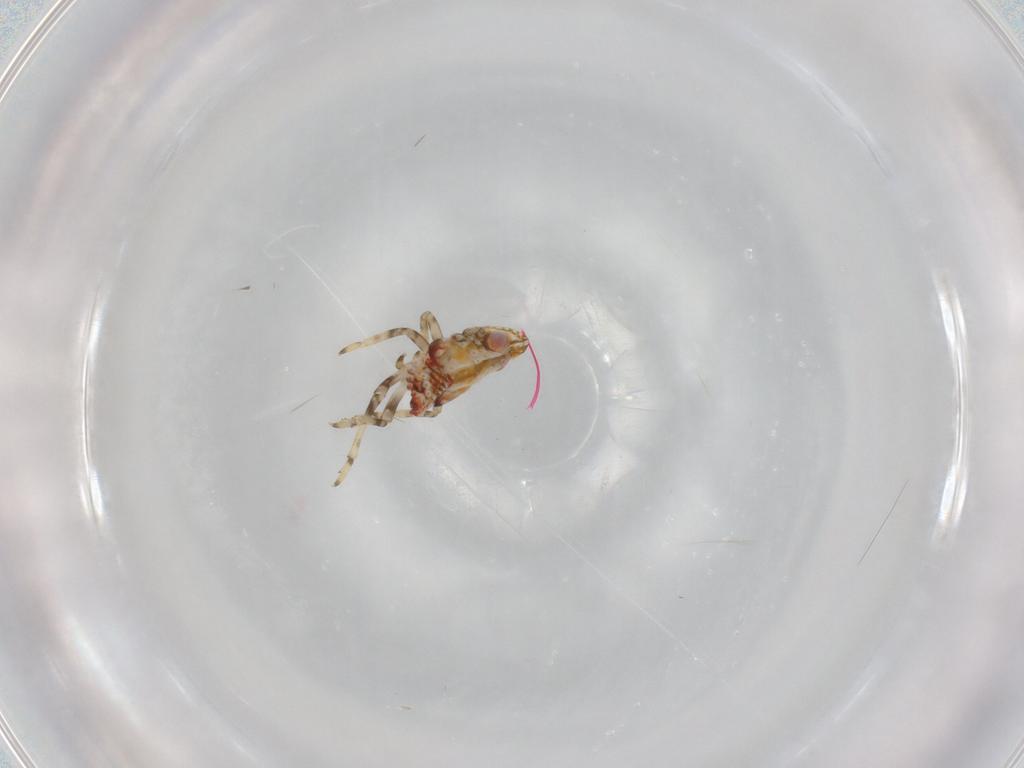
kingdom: Animalia
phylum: Arthropoda
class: Insecta
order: Hemiptera
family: Tropiduchidae
